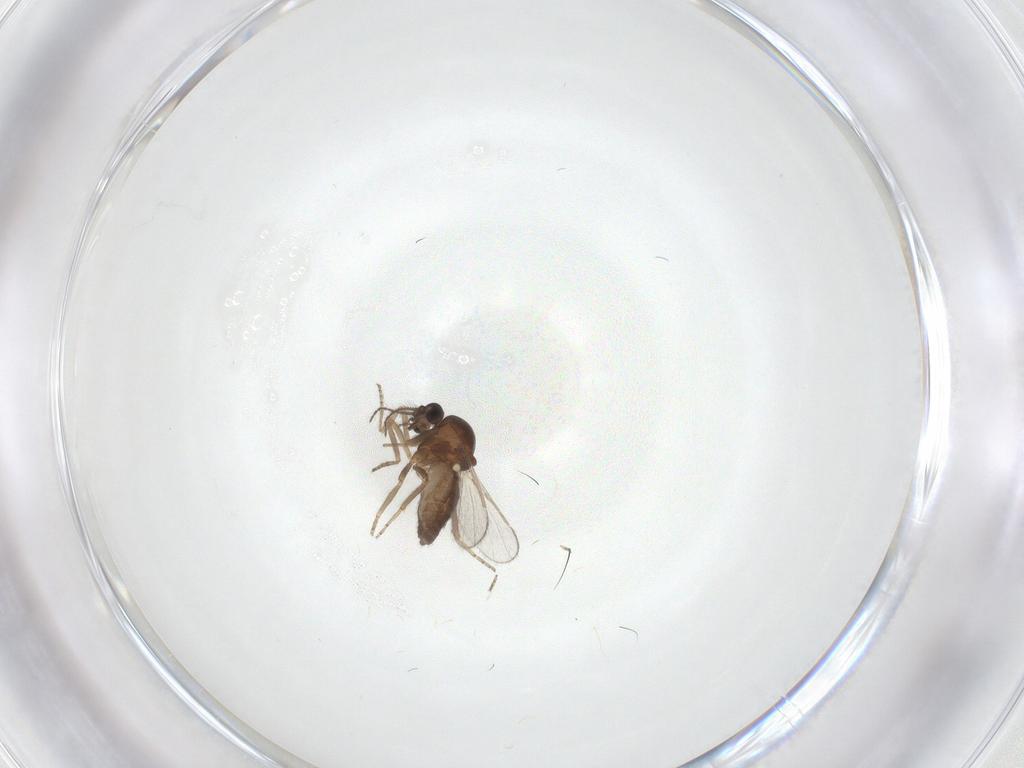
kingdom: Animalia
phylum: Arthropoda
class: Insecta
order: Diptera
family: Ceratopogonidae
